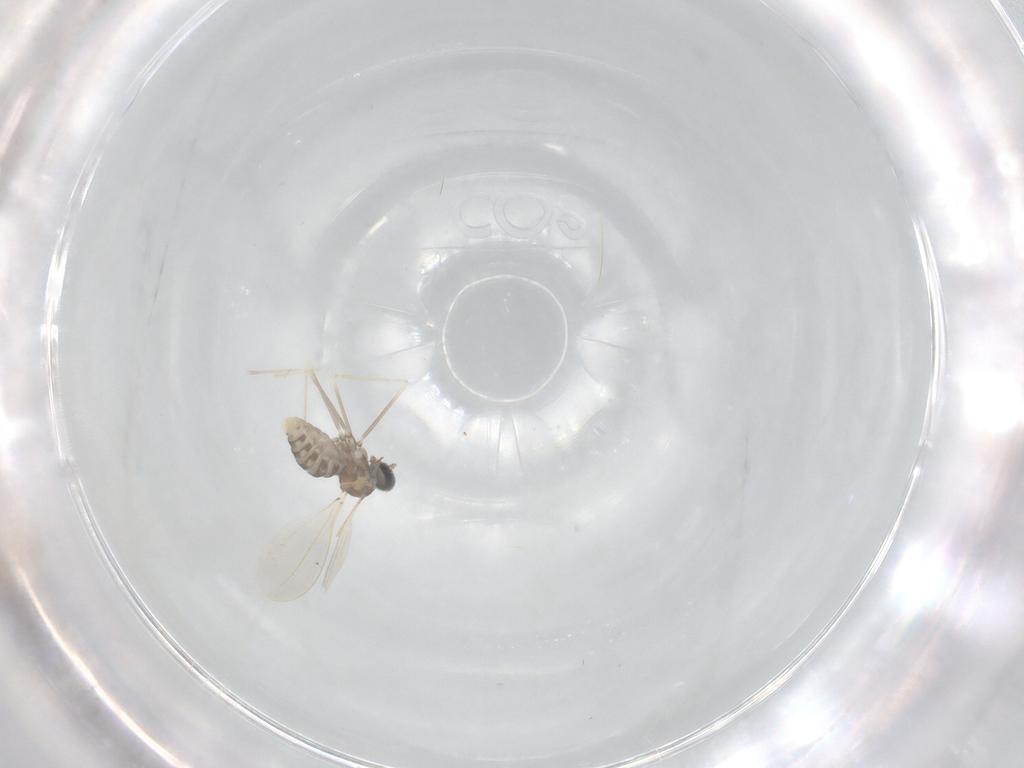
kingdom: Animalia
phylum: Arthropoda
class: Insecta
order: Diptera
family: Cecidomyiidae
